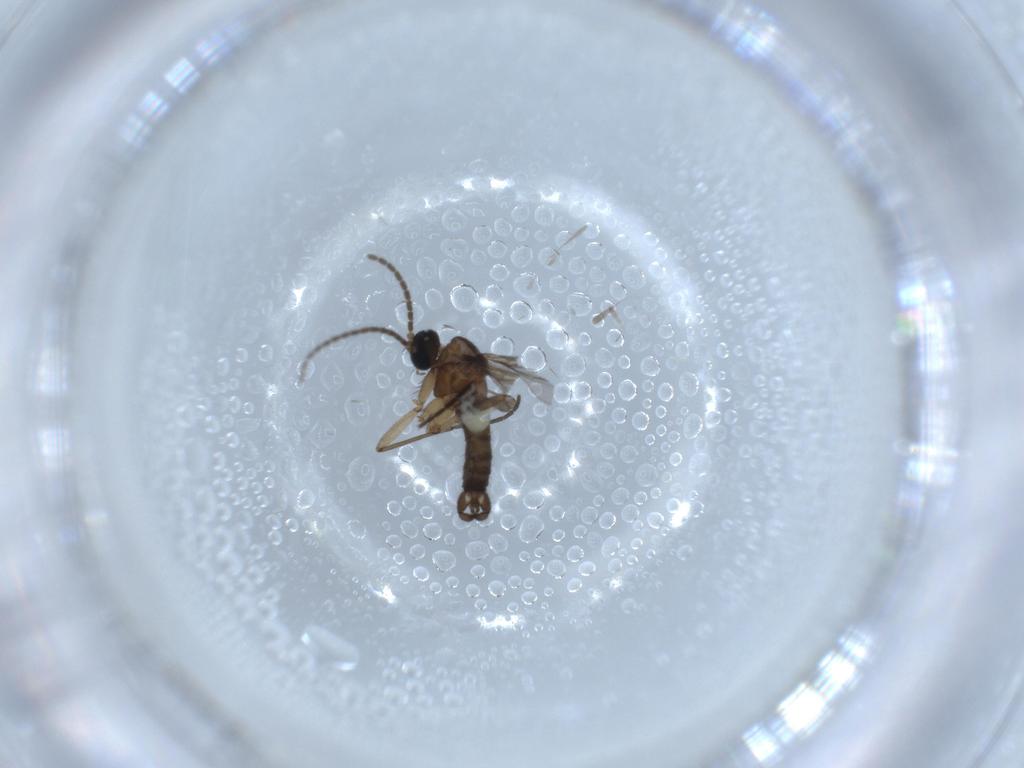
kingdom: Animalia
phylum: Arthropoda
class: Insecta
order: Diptera
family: Sciaridae
